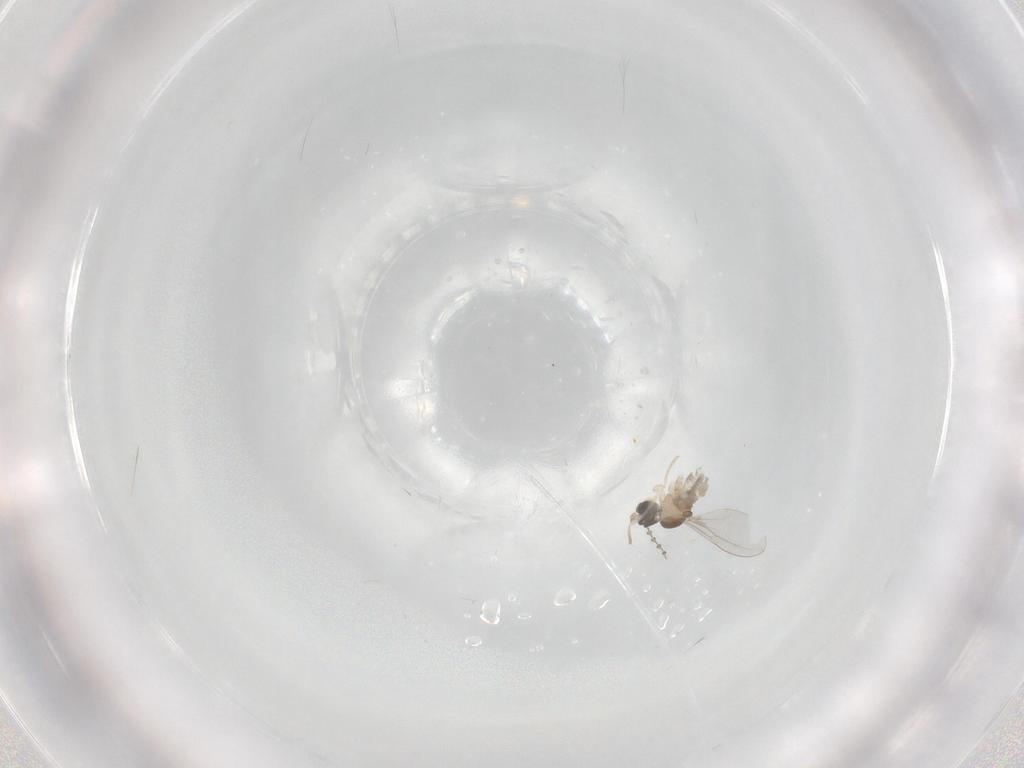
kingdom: Animalia
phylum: Arthropoda
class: Insecta
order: Diptera
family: Cecidomyiidae
